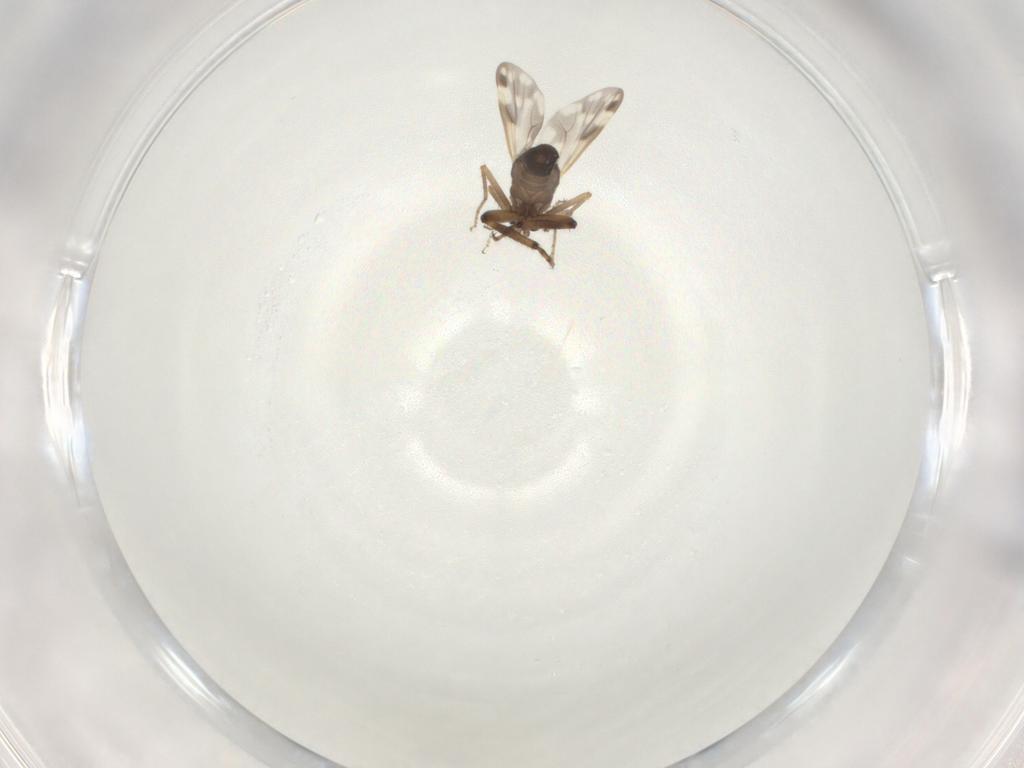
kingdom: Animalia
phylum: Arthropoda
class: Insecta
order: Diptera
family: Ceratopogonidae
